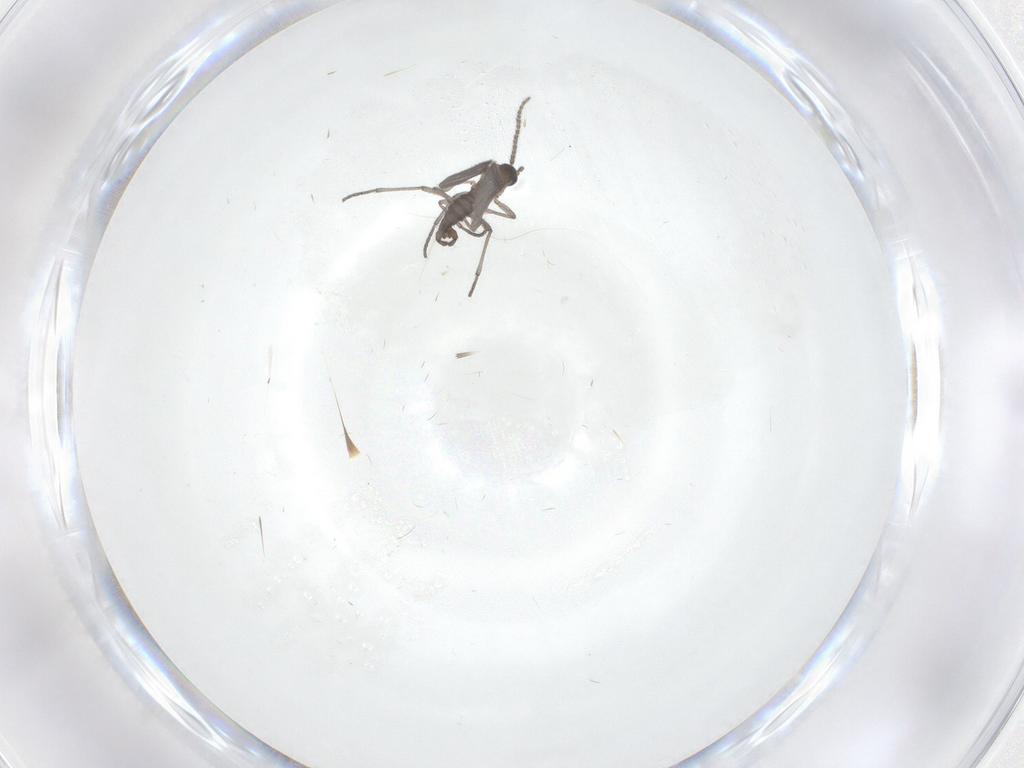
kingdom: Animalia
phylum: Arthropoda
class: Insecta
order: Diptera
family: Sciaridae
